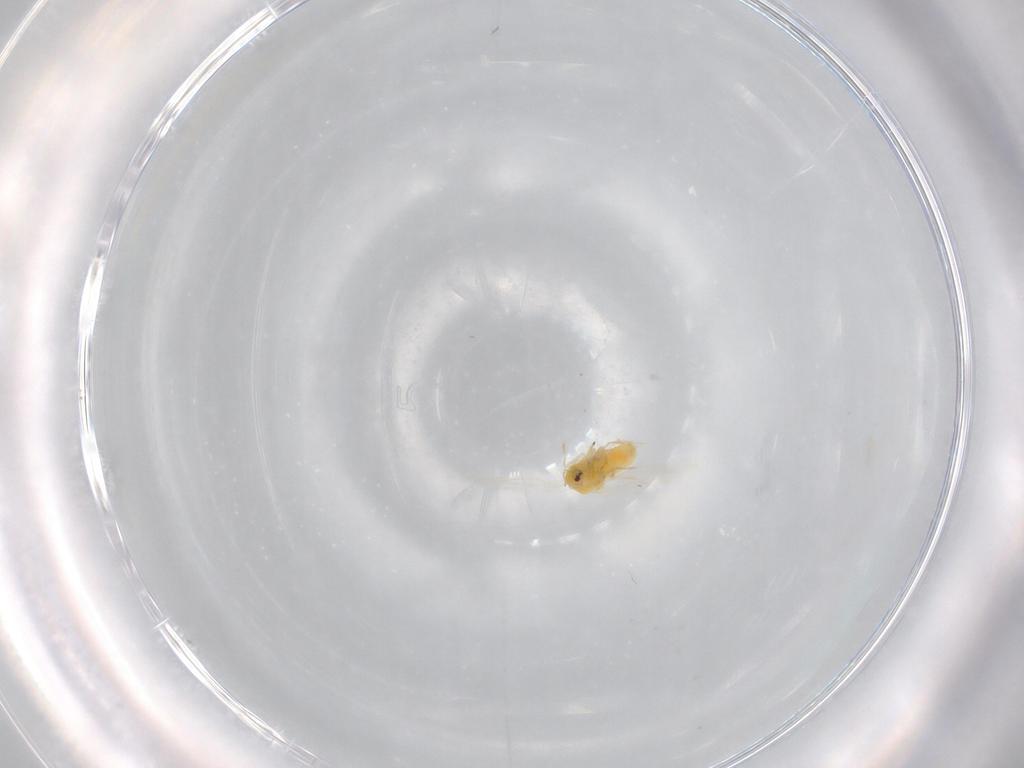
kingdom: Animalia
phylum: Arthropoda
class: Insecta
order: Hemiptera
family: Aleyrodidae
